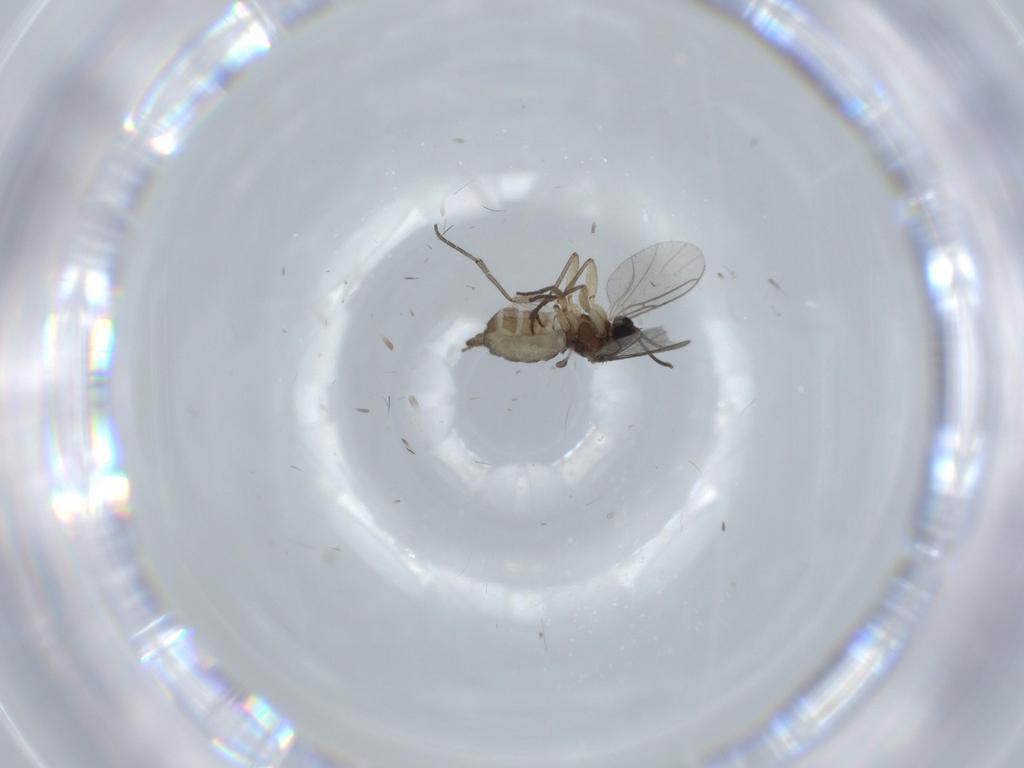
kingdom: Animalia
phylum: Arthropoda
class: Insecta
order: Diptera
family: Sciaridae
